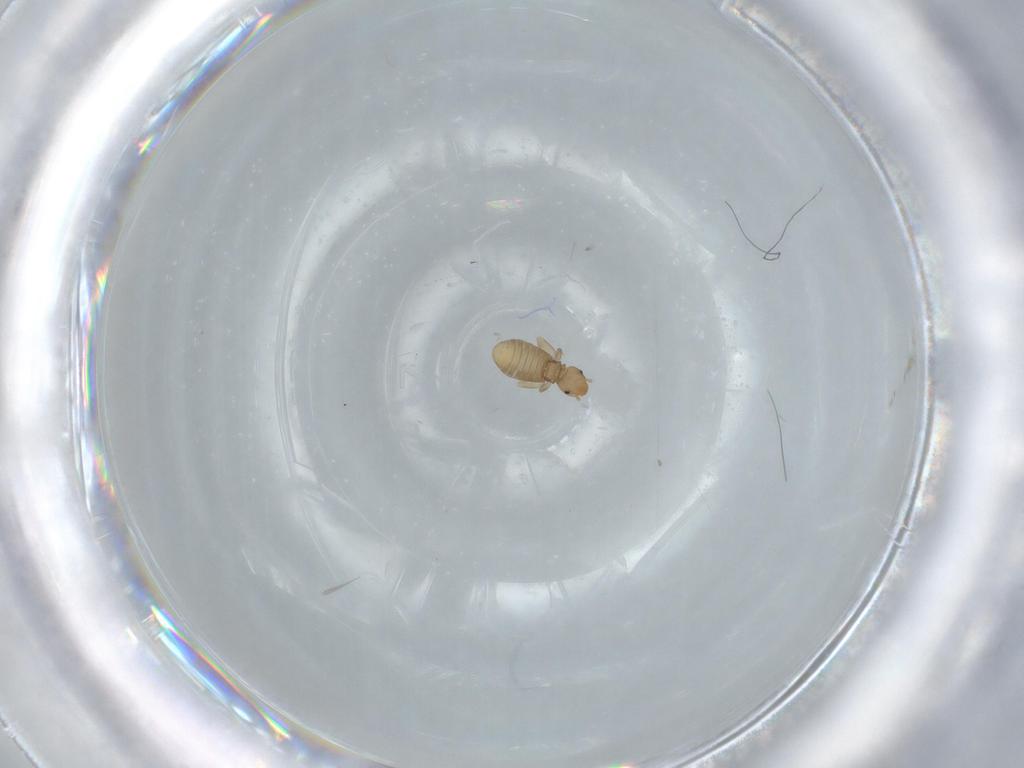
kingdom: Animalia
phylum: Arthropoda
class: Insecta
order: Psocodea
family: Liposcelididae
